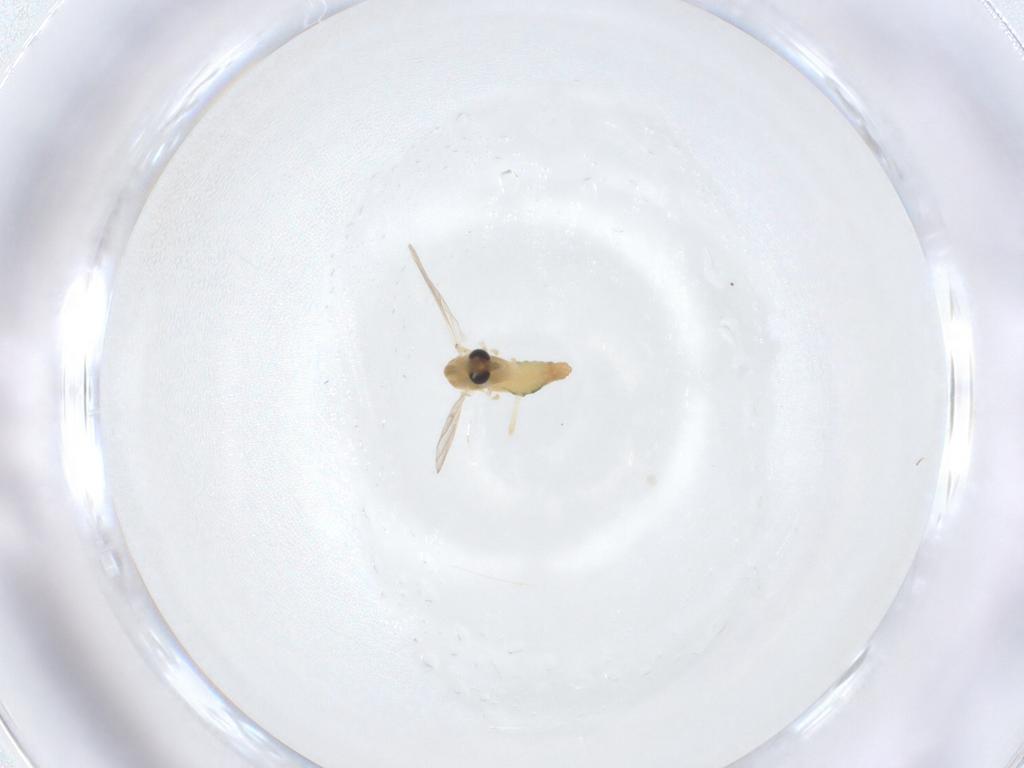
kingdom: Animalia
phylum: Arthropoda
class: Insecta
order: Diptera
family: Chironomidae
